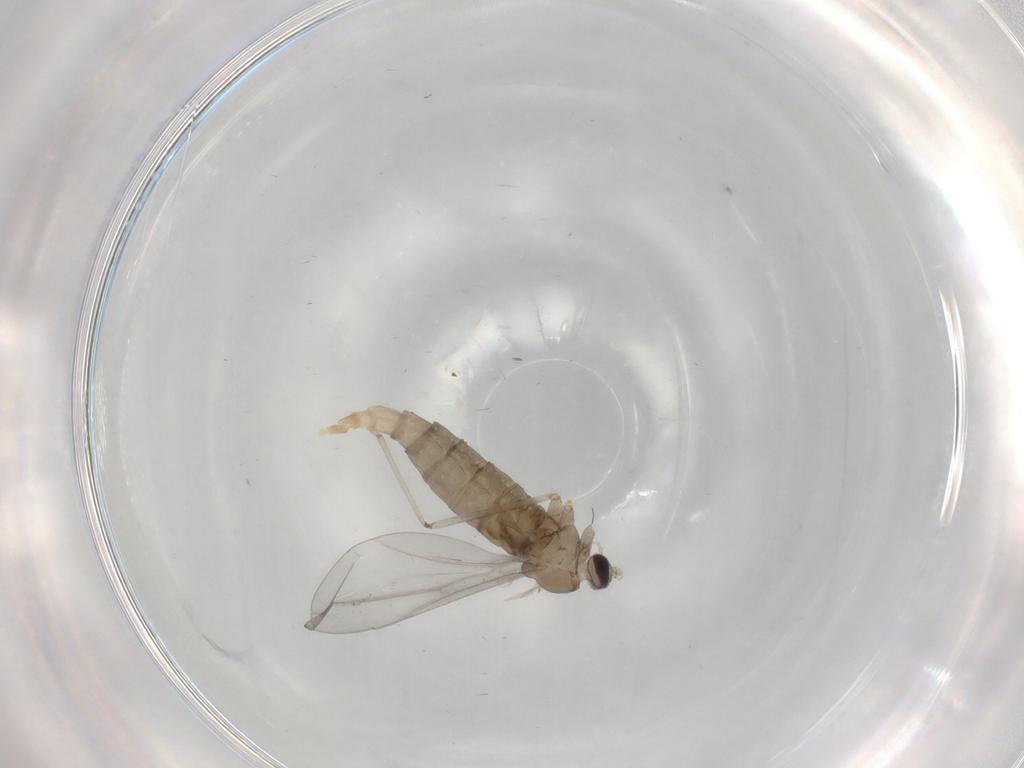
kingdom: Animalia
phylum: Arthropoda
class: Insecta
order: Diptera
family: Cecidomyiidae
